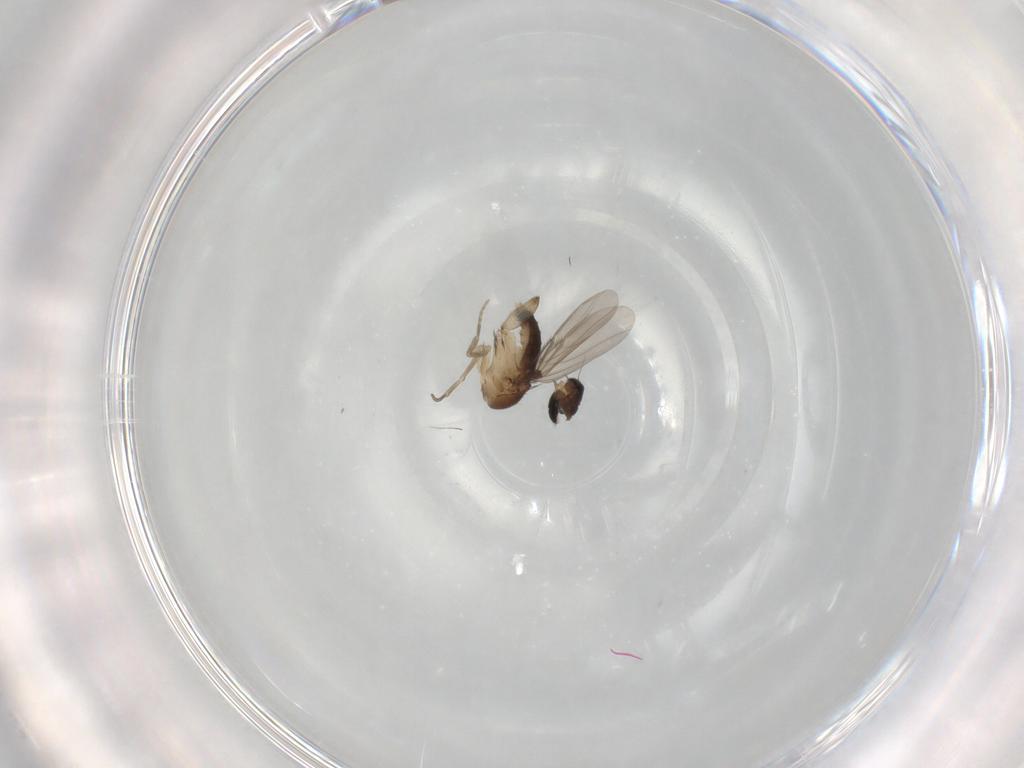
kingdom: Animalia
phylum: Arthropoda
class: Insecta
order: Diptera
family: Phoridae
